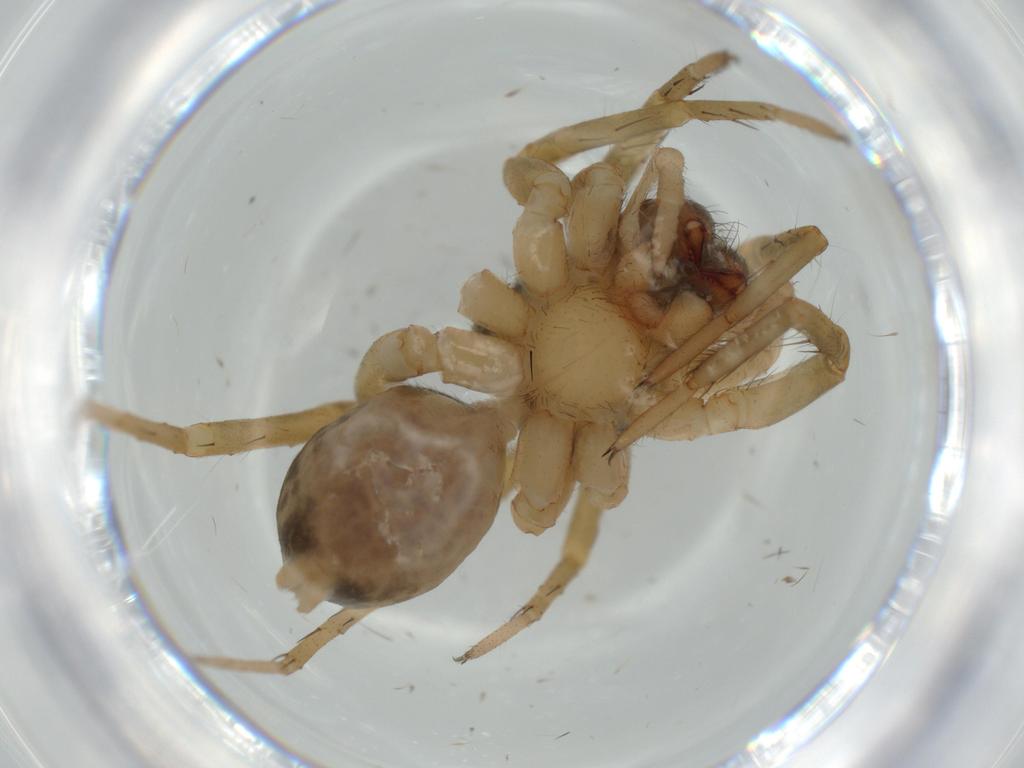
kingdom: Animalia
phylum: Arthropoda
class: Arachnida
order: Araneae
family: Lycosidae
